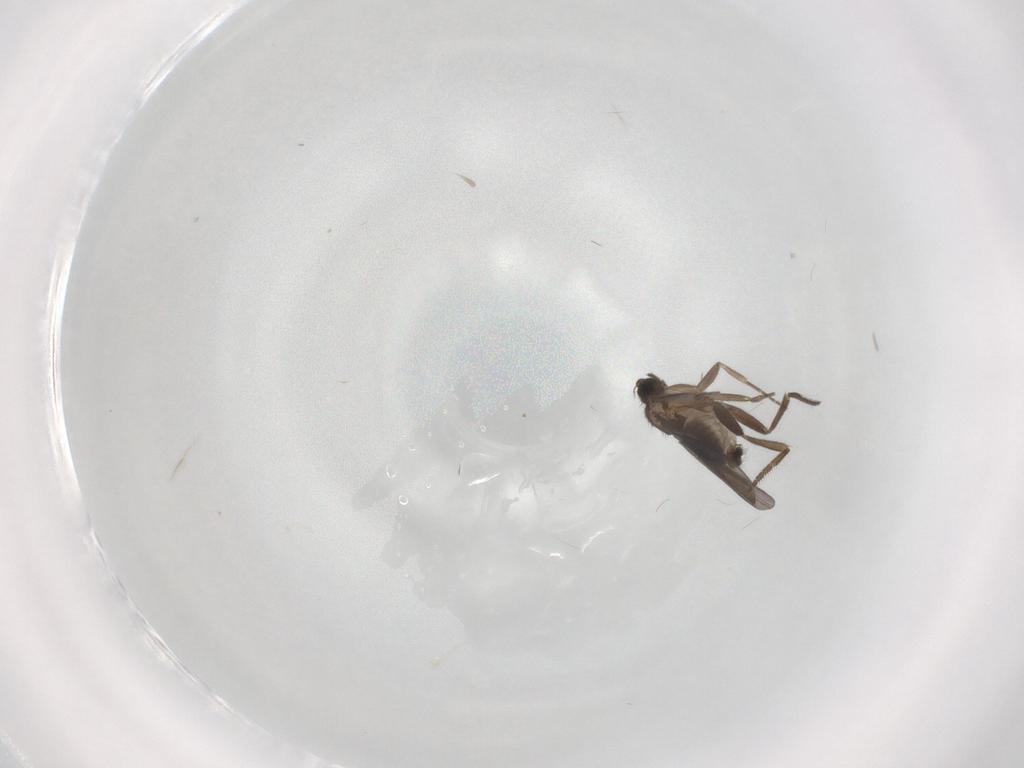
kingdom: Animalia
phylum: Arthropoda
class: Insecta
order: Diptera
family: Phoridae
